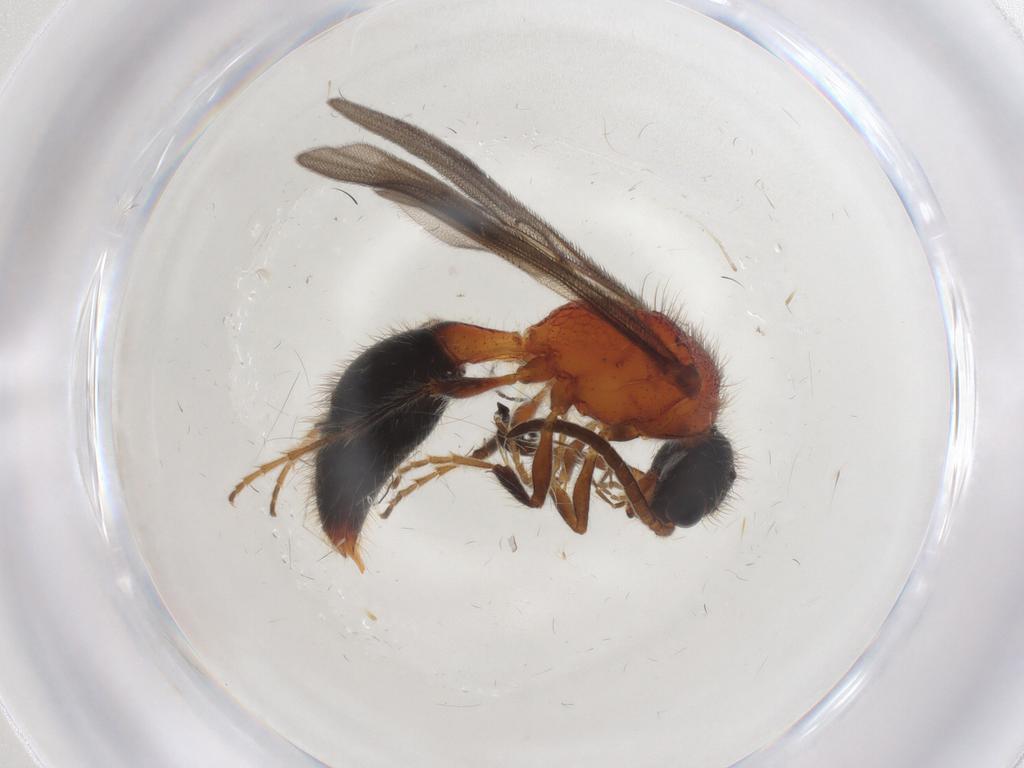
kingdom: Animalia
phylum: Arthropoda
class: Insecta
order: Hymenoptera
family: Mutillidae
